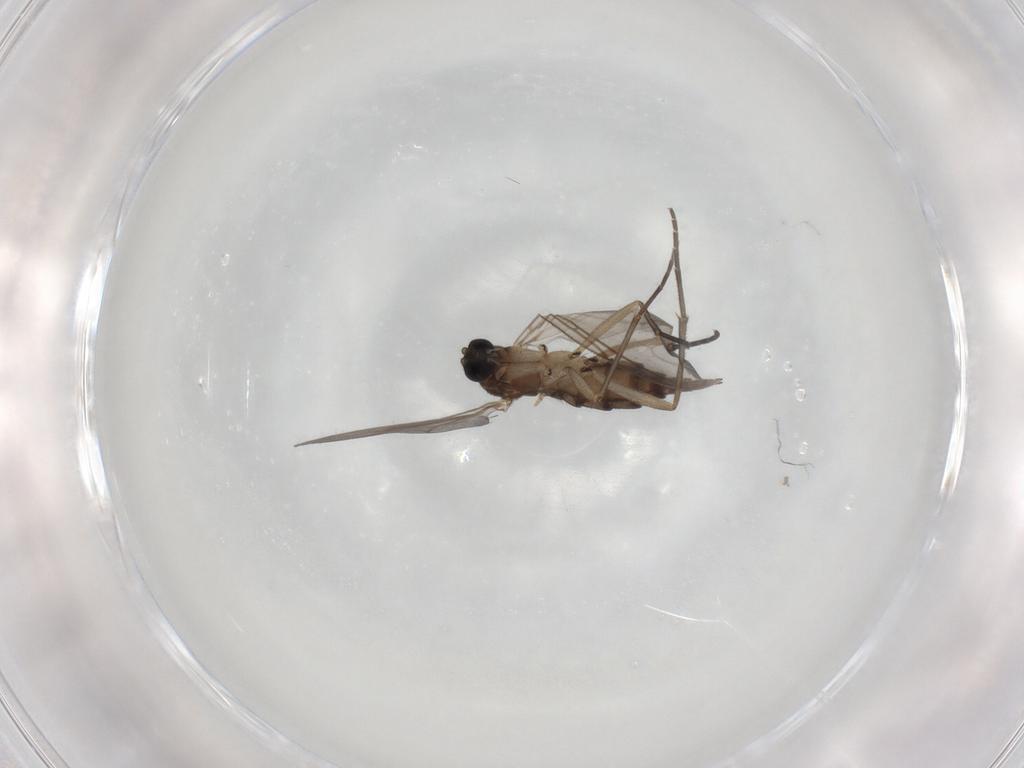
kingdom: Animalia
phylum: Arthropoda
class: Insecta
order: Diptera
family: Sciaridae
